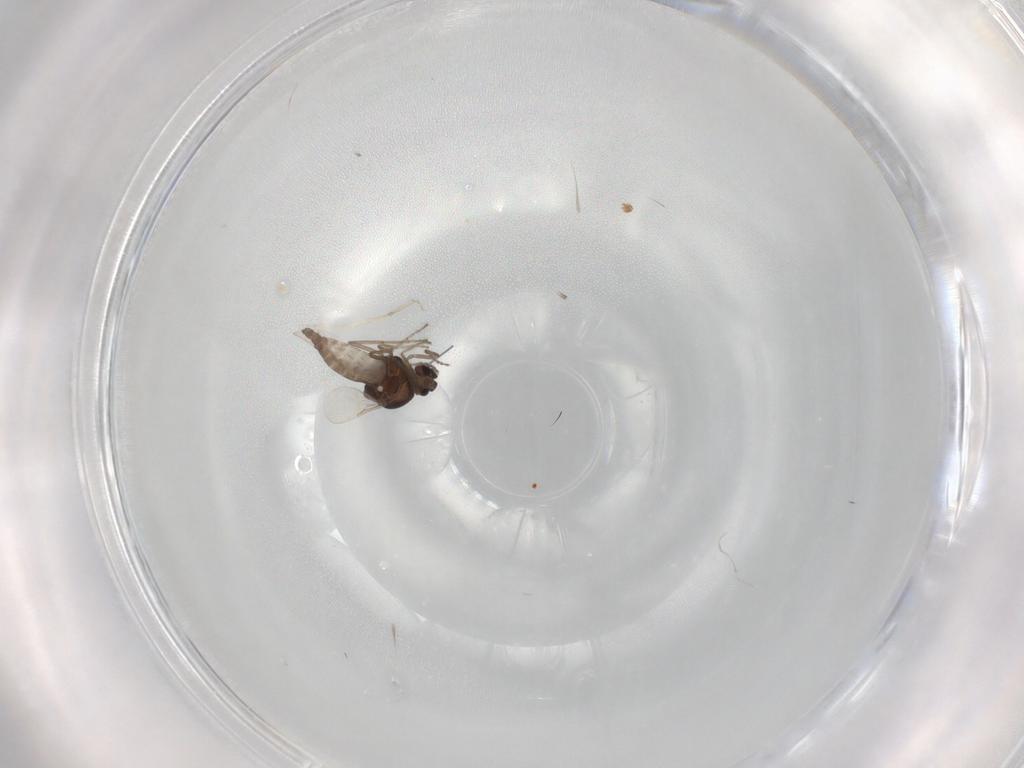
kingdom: Animalia
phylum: Arthropoda
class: Insecta
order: Diptera
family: Ceratopogonidae
